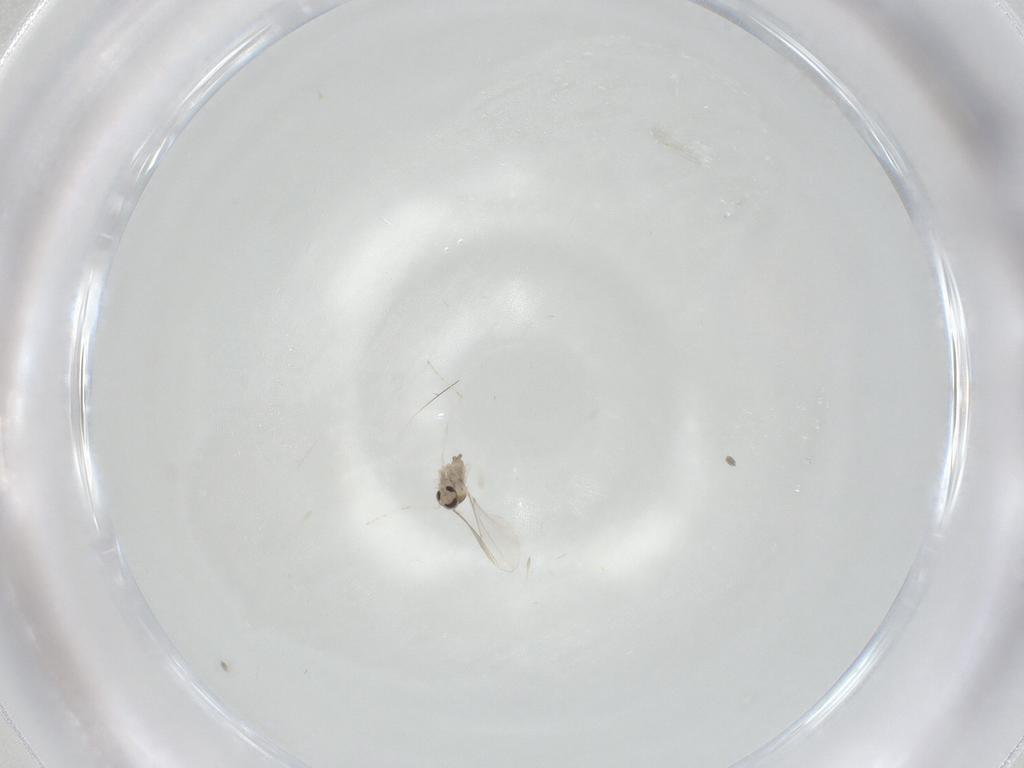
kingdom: Animalia
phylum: Arthropoda
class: Insecta
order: Diptera
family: Cecidomyiidae
